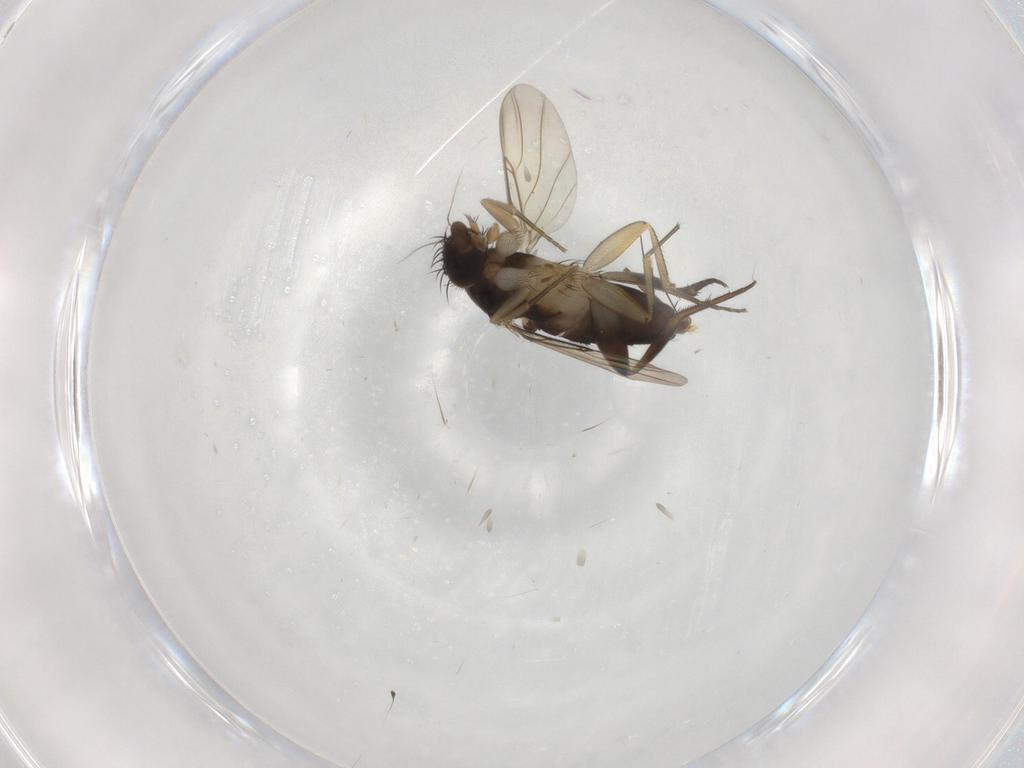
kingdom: Animalia
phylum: Arthropoda
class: Insecta
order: Diptera
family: Phoridae
